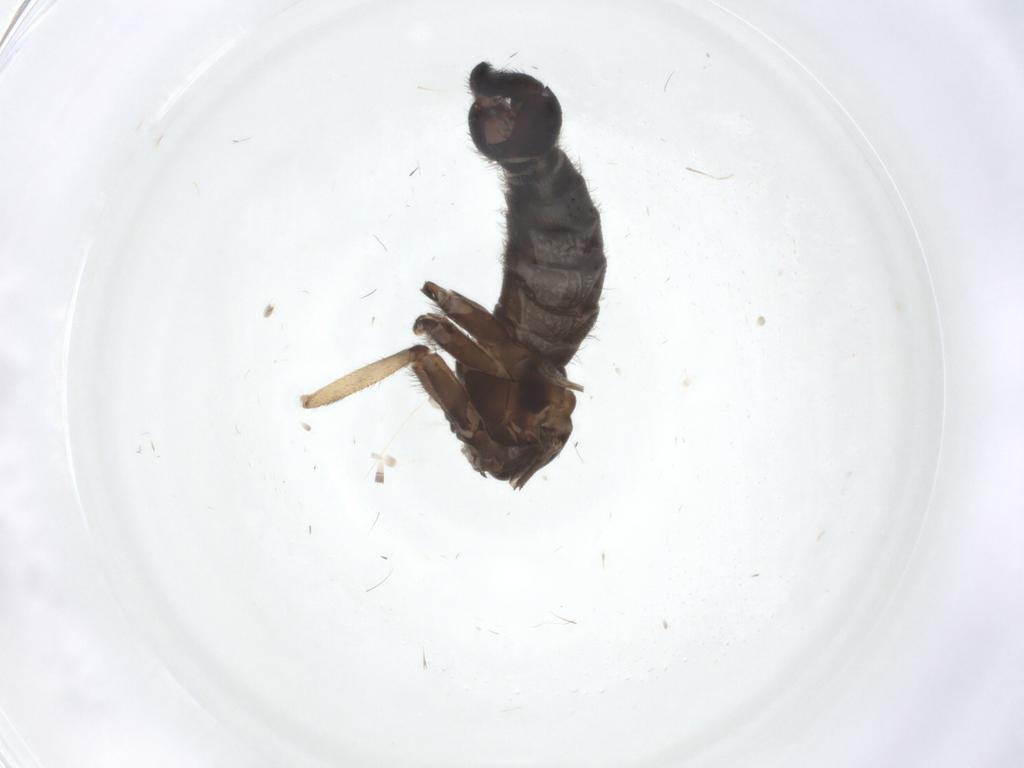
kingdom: Animalia
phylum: Arthropoda
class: Insecta
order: Diptera
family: Sciaridae
